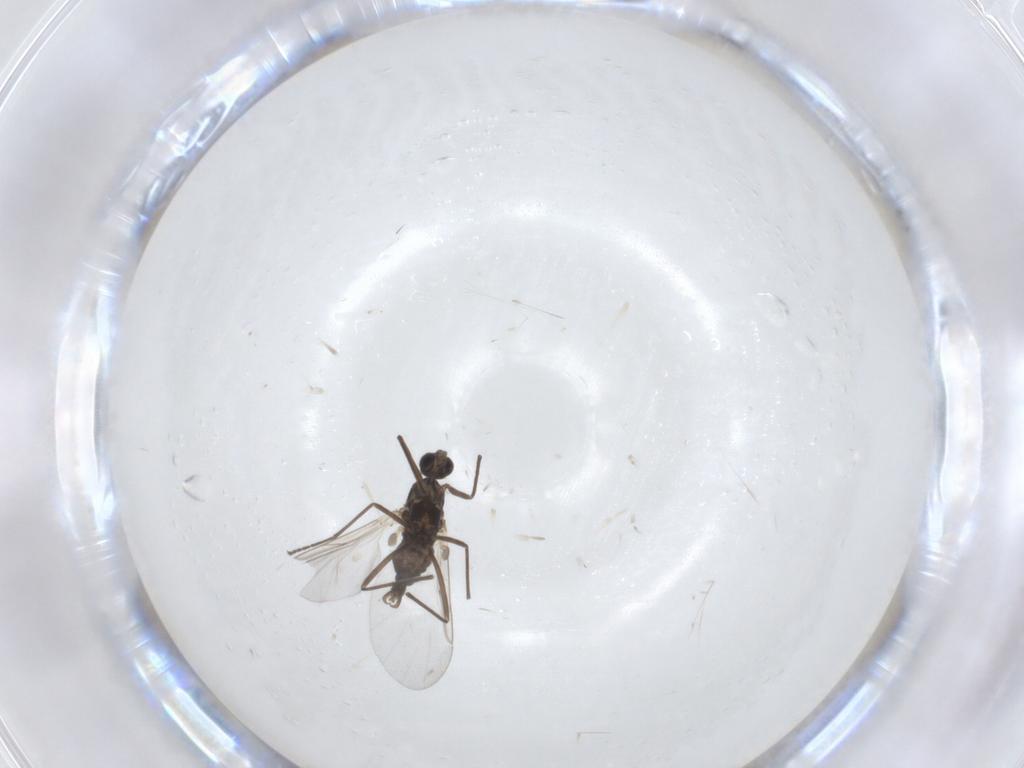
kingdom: Animalia
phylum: Arthropoda
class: Insecta
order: Diptera
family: Cecidomyiidae
